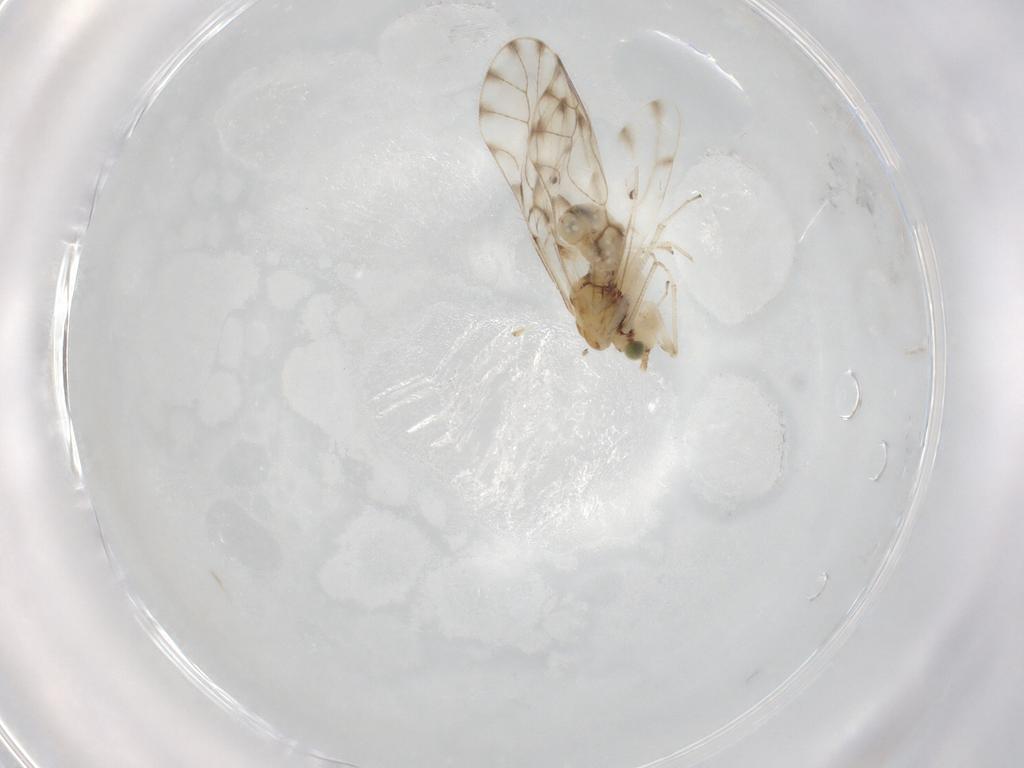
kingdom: Animalia
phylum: Arthropoda
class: Insecta
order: Psocodea
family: Ectopsocidae
